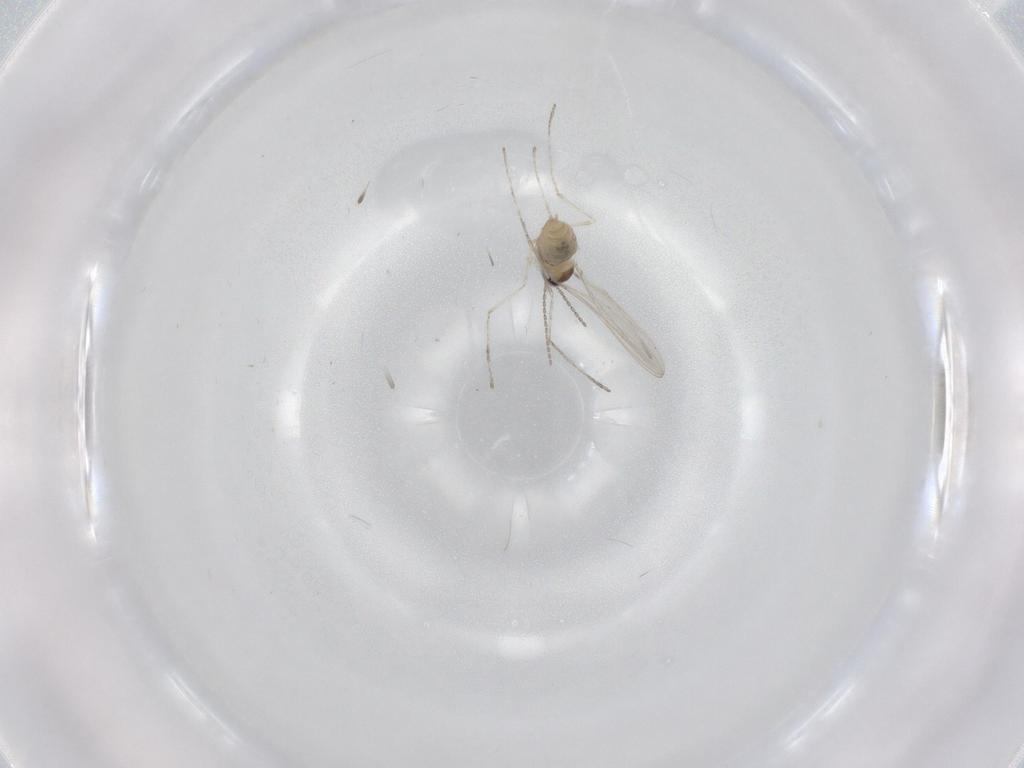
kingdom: Animalia
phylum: Arthropoda
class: Insecta
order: Diptera
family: Cecidomyiidae
